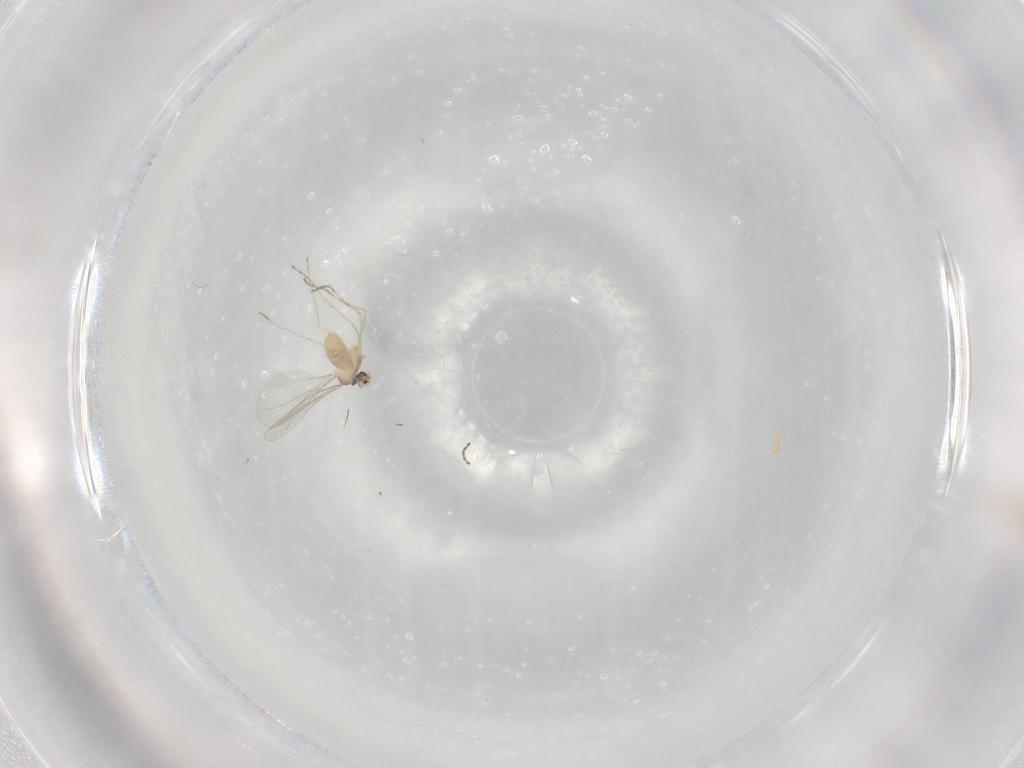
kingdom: Animalia
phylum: Arthropoda
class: Insecta
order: Diptera
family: Cecidomyiidae
